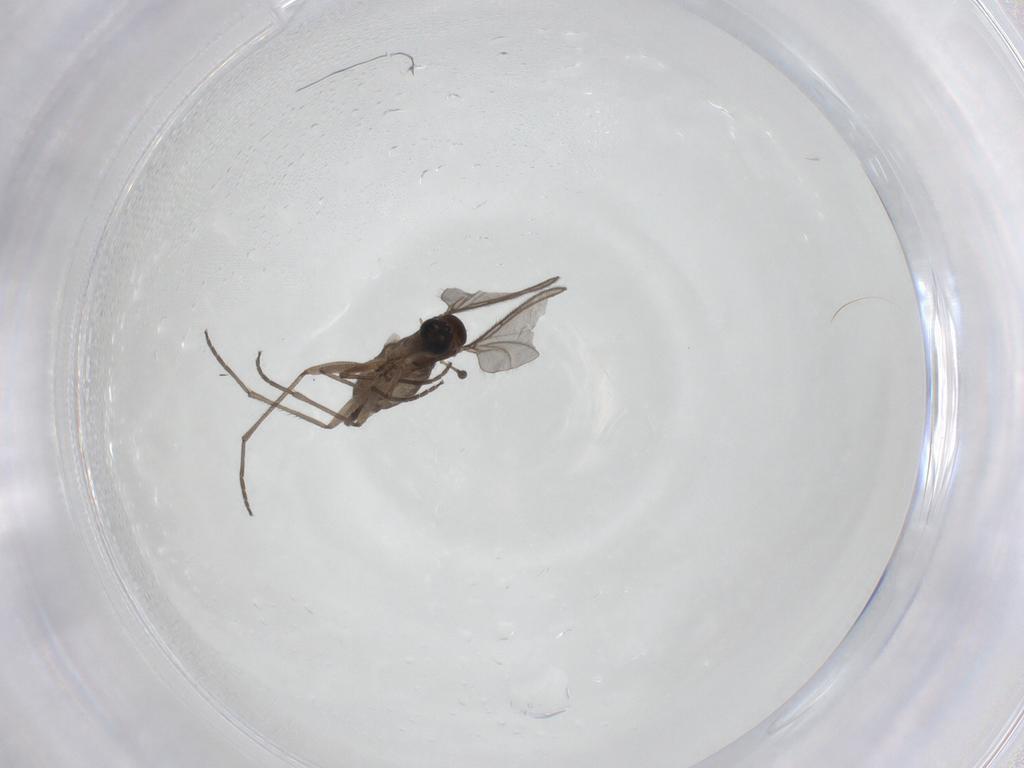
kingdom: Animalia
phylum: Arthropoda
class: Insecta
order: Diptera
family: Sciaridae
